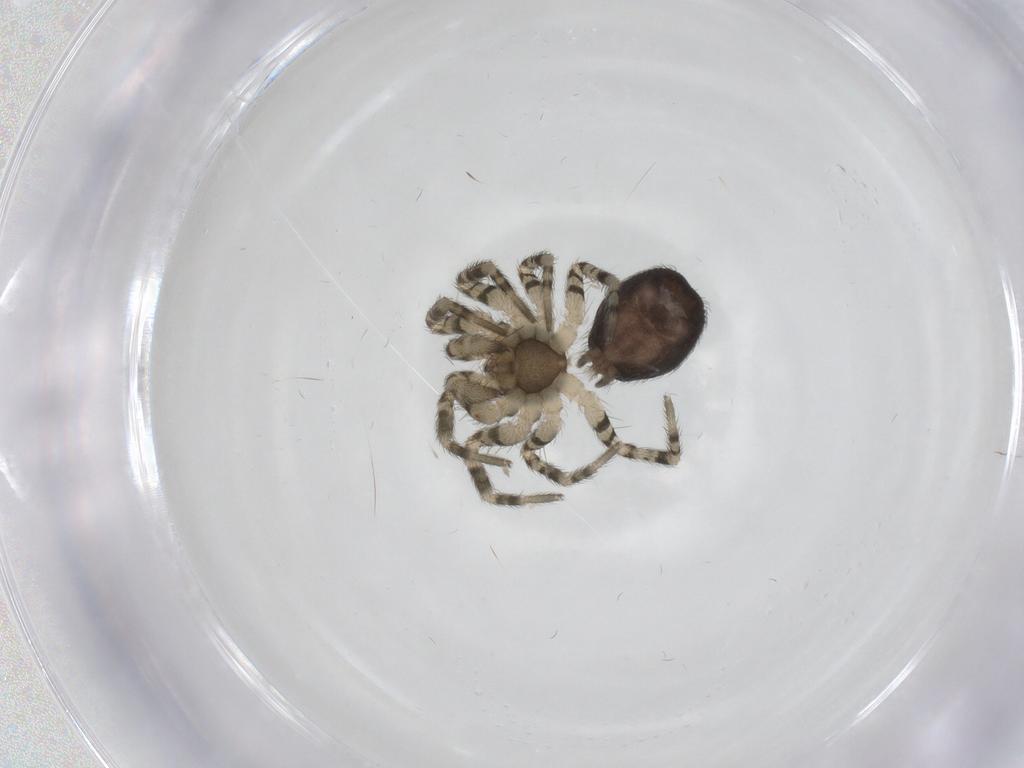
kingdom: Animalia
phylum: Arthropoda
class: Arachnida
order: Araneae
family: Oecobiidae
